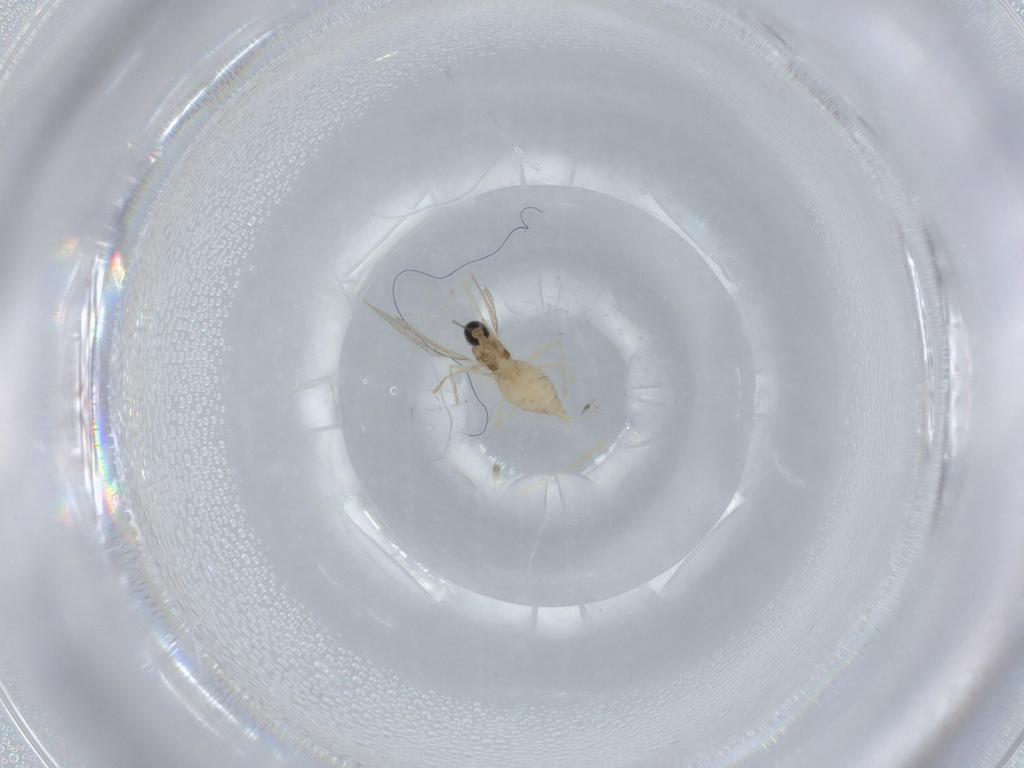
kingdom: Animalia
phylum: Arthropoda
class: Insecta
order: Diptera
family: Cecidomyiidae
